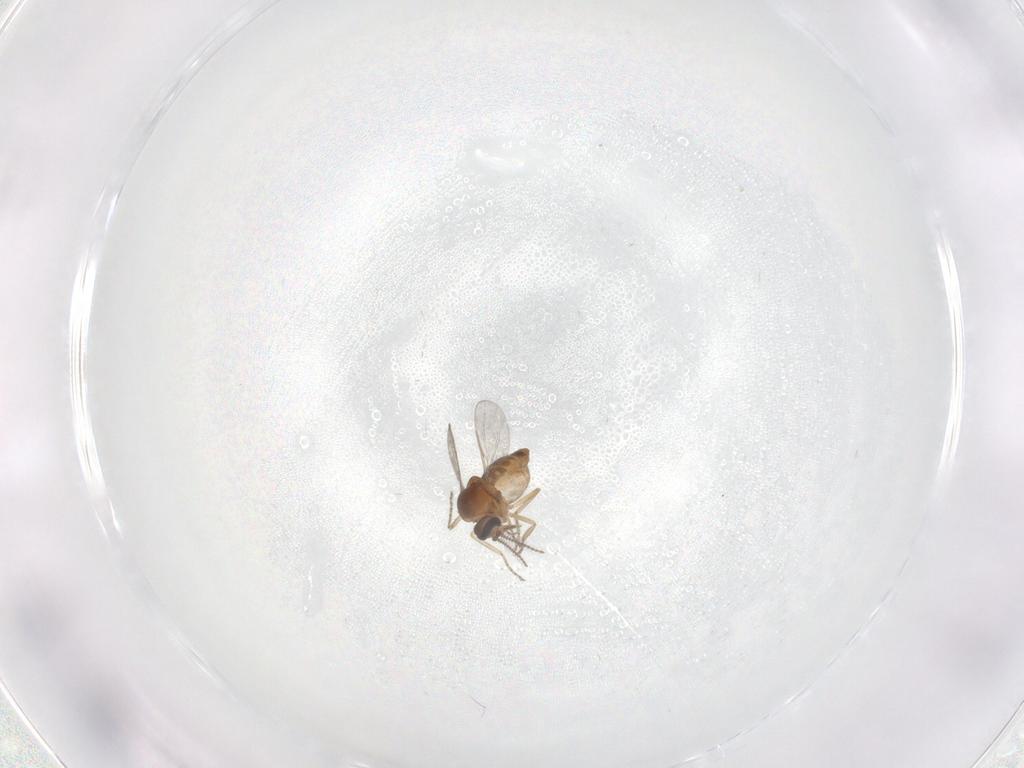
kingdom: Animalia
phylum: Arthropoda
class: Insecta
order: Diptera
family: Ceratopogonidae
